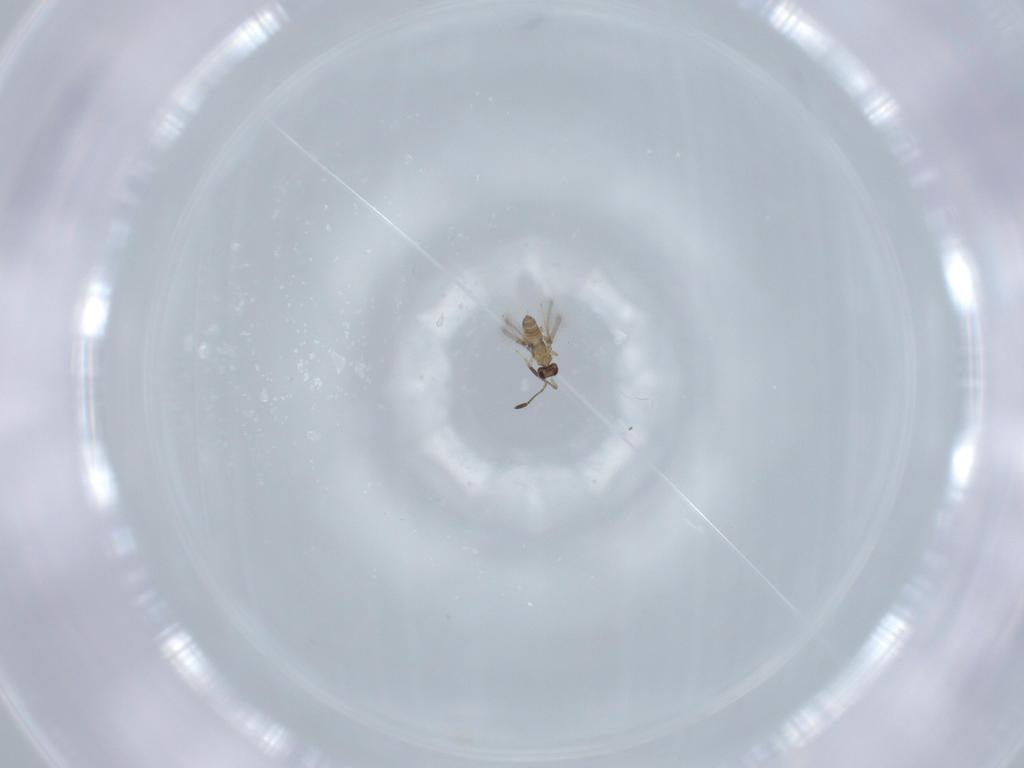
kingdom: Animalia
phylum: Arthropoda
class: Insecta
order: Hymenoptera
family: Mymaridae
